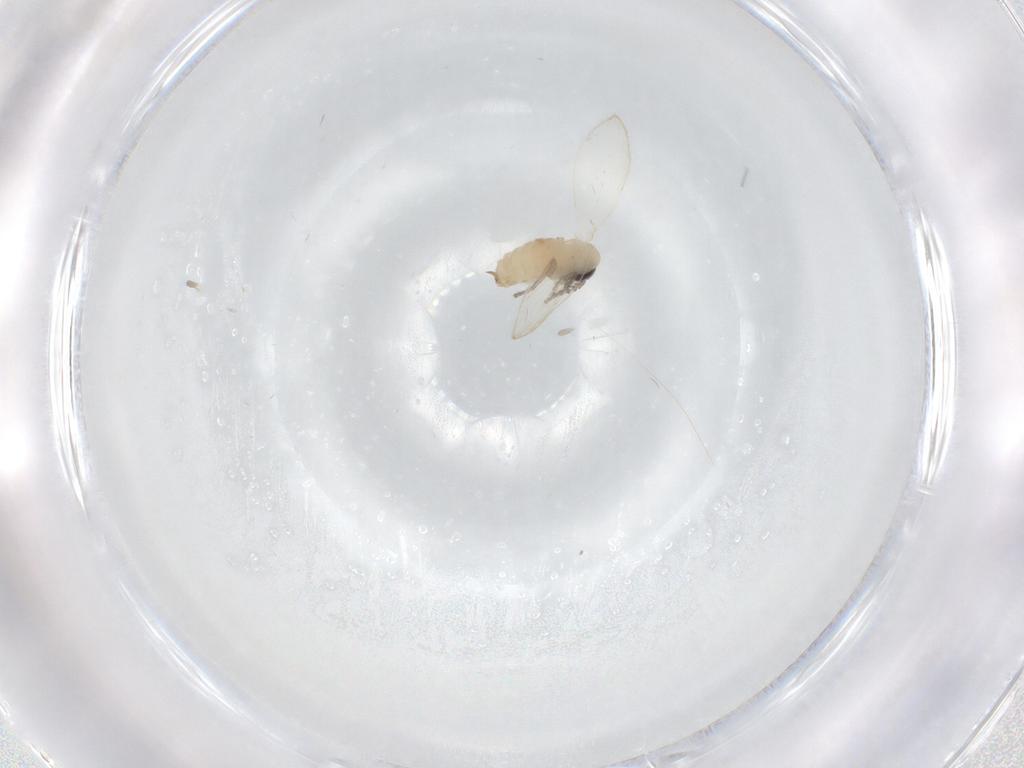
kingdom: Animalia
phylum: Arthropoda
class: Insecta
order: Diptera
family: Psychodidae
